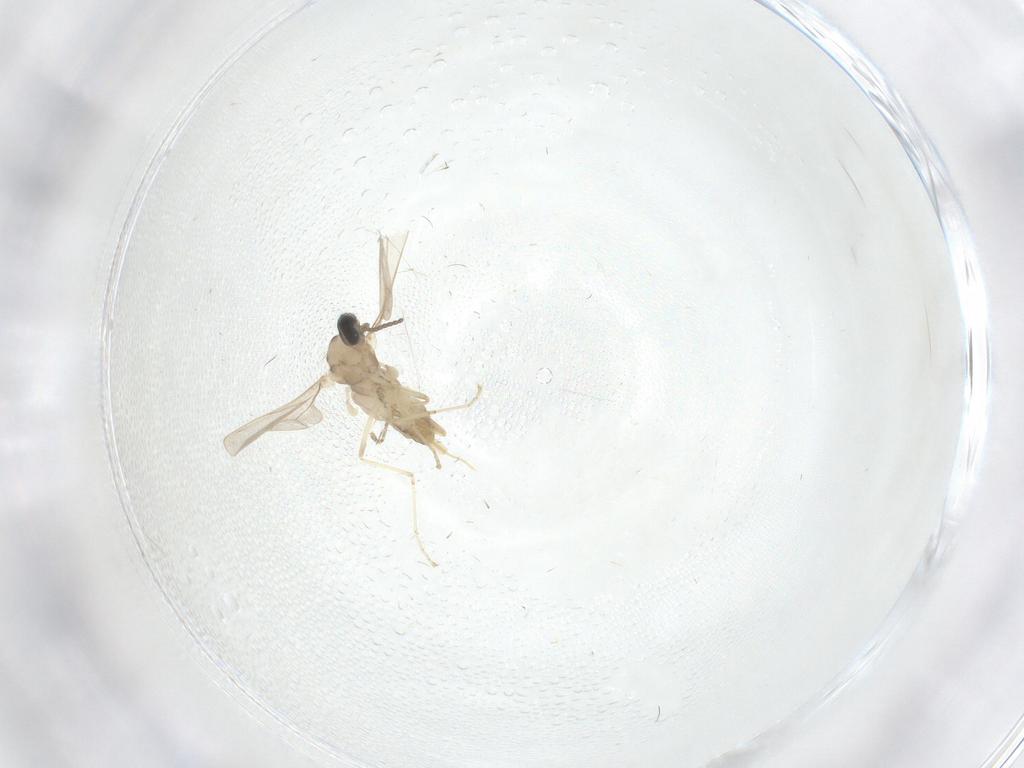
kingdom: Animalia
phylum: Arthropoda
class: Insecta
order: Diptera
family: Cecidomyiidae
